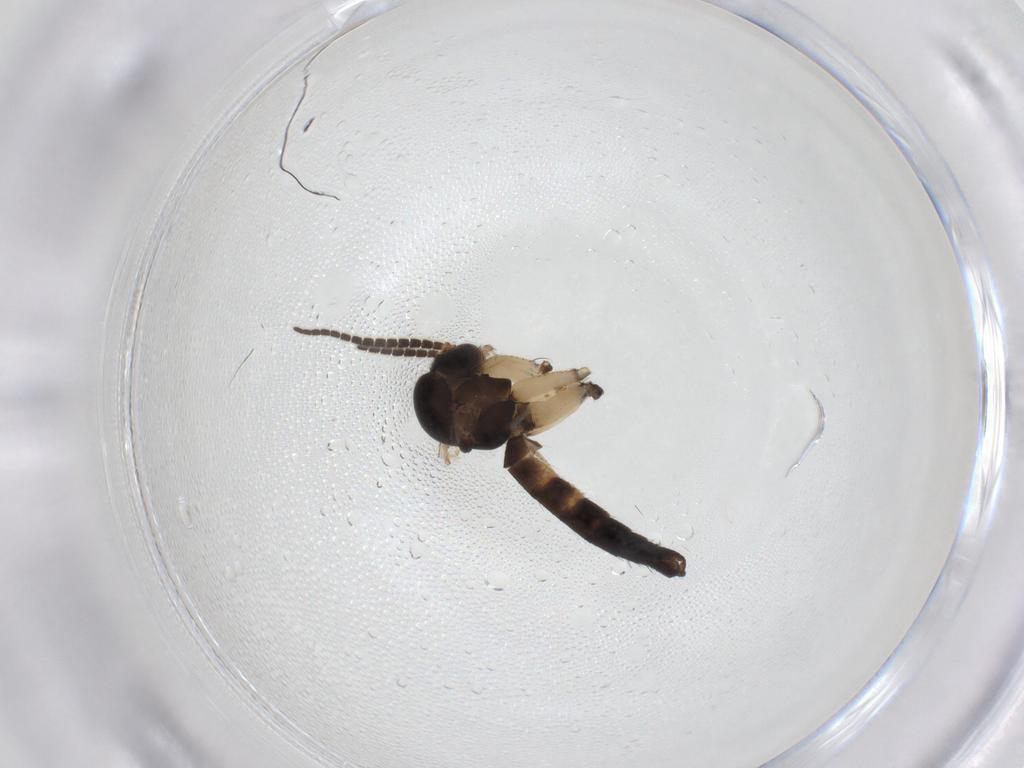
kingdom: Animalia
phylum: Arthropoda
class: Insecta
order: Diptera
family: Mycetophilidae
